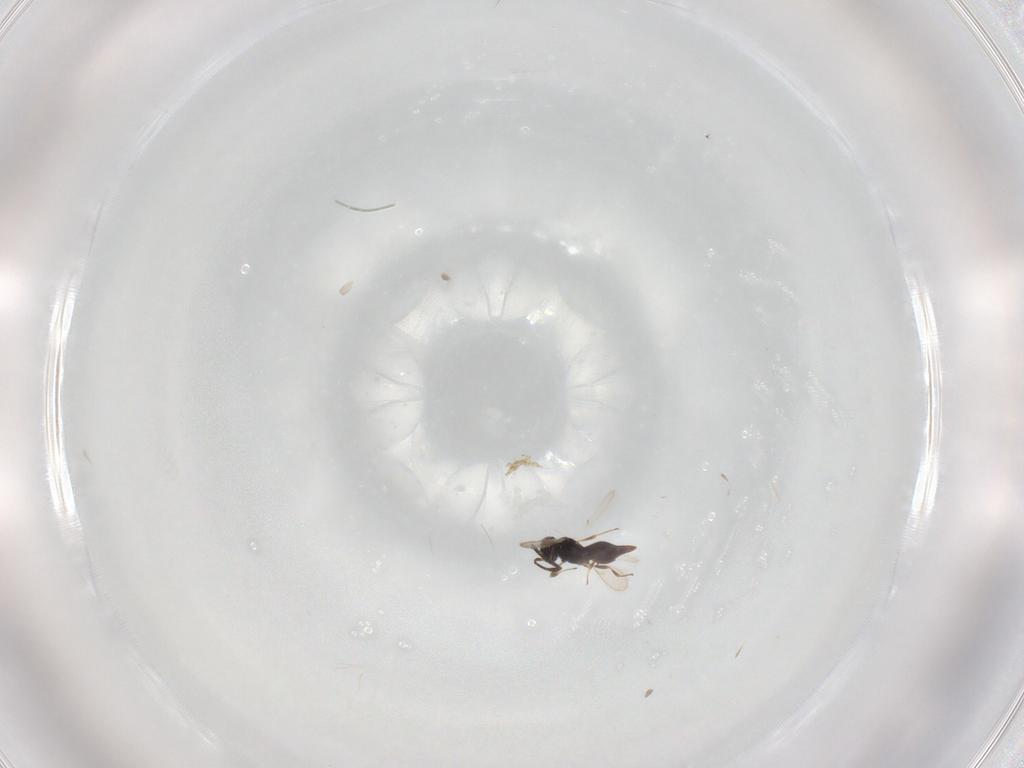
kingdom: Animalia
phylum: Arthropoda
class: Insecta
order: Hymenoptera
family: Scelionidae
